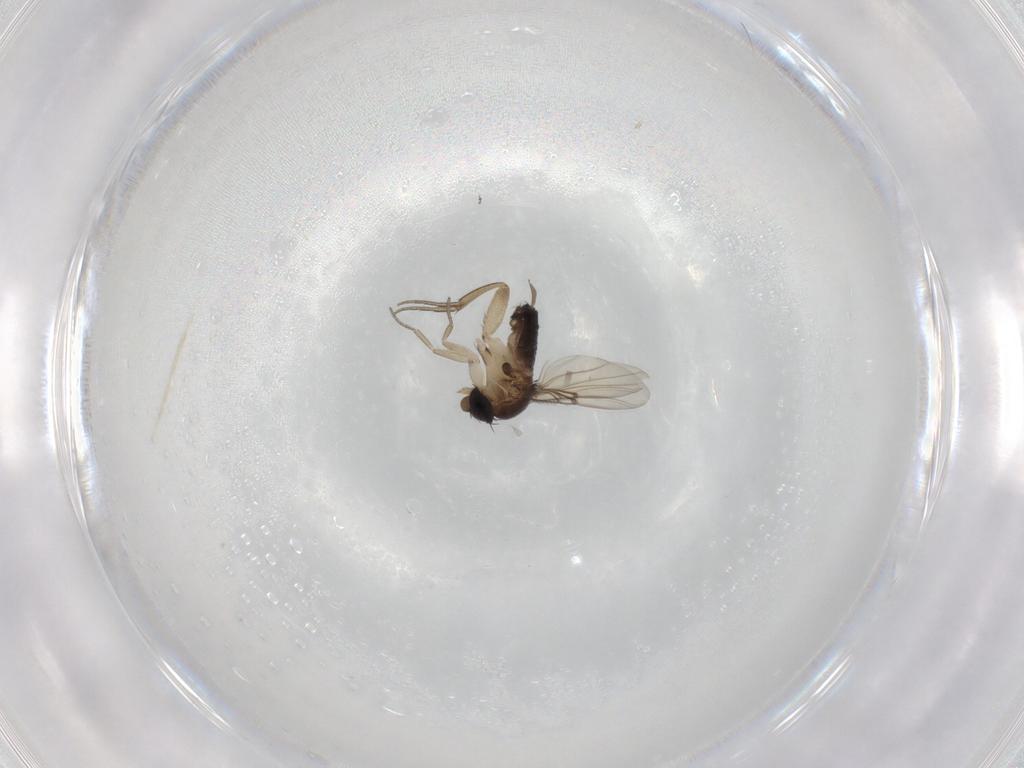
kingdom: Animalia
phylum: Arthropoda
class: Insecta
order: Diptera
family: Cecidomyiidae
